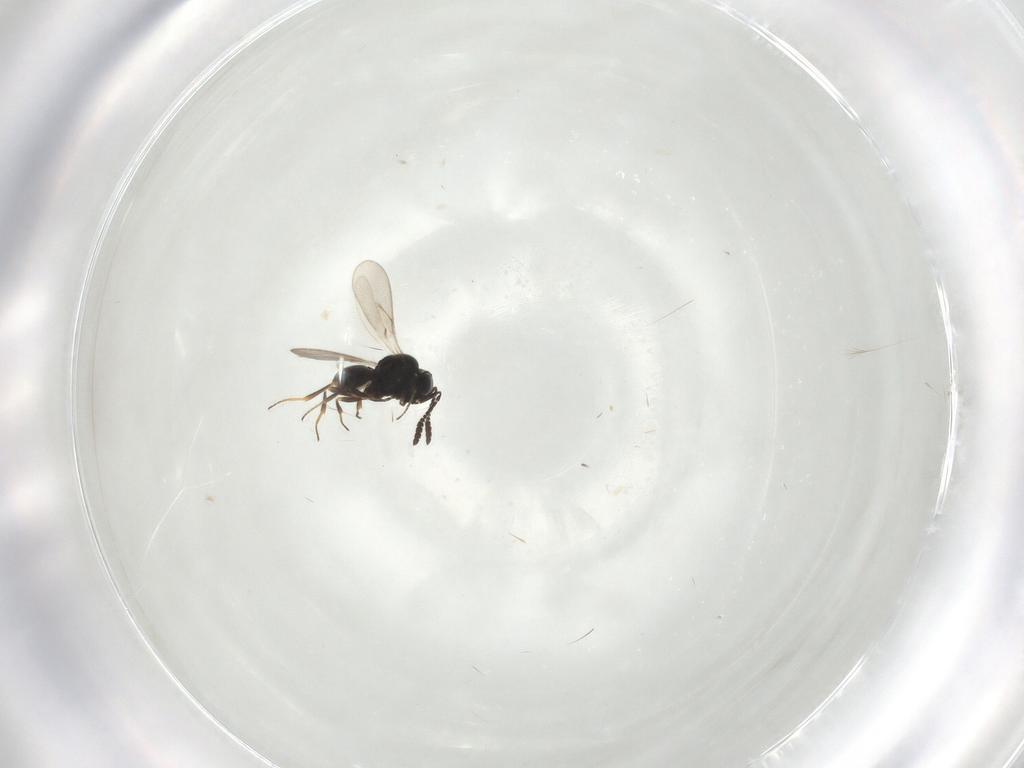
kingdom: Animalia
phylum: Arthropoda
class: Insecta
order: Hymenoptera
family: Scelionidae
